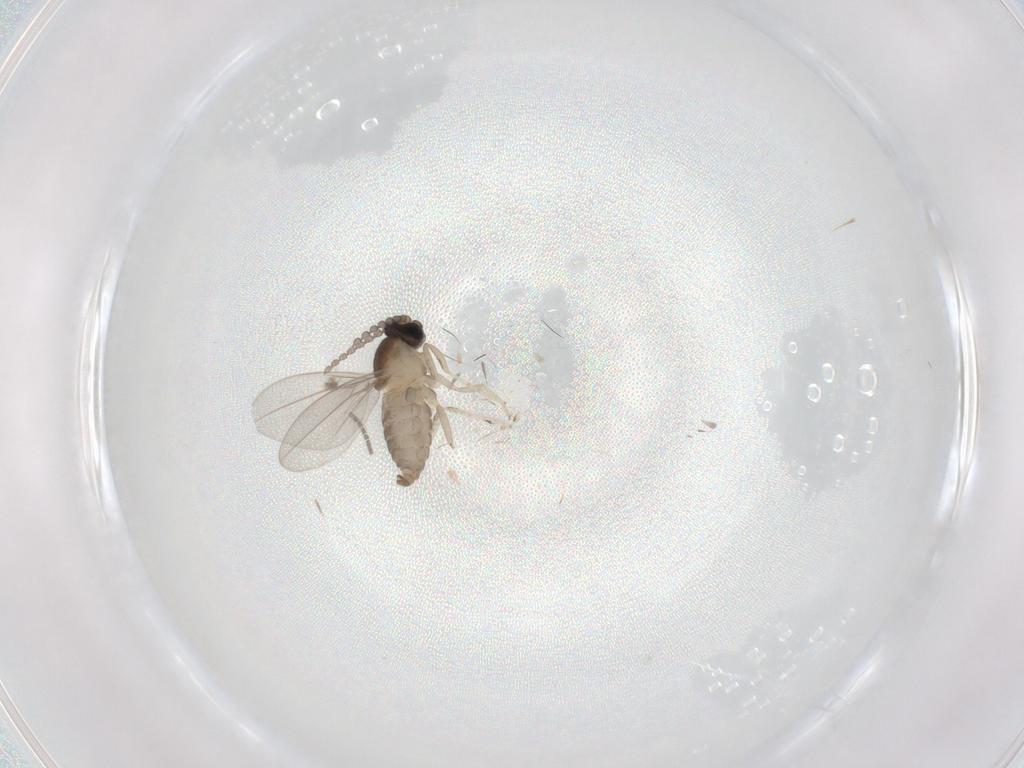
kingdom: Animalia
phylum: Arthropoda
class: Insecta
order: Diptera
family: Cecidomyiidae
